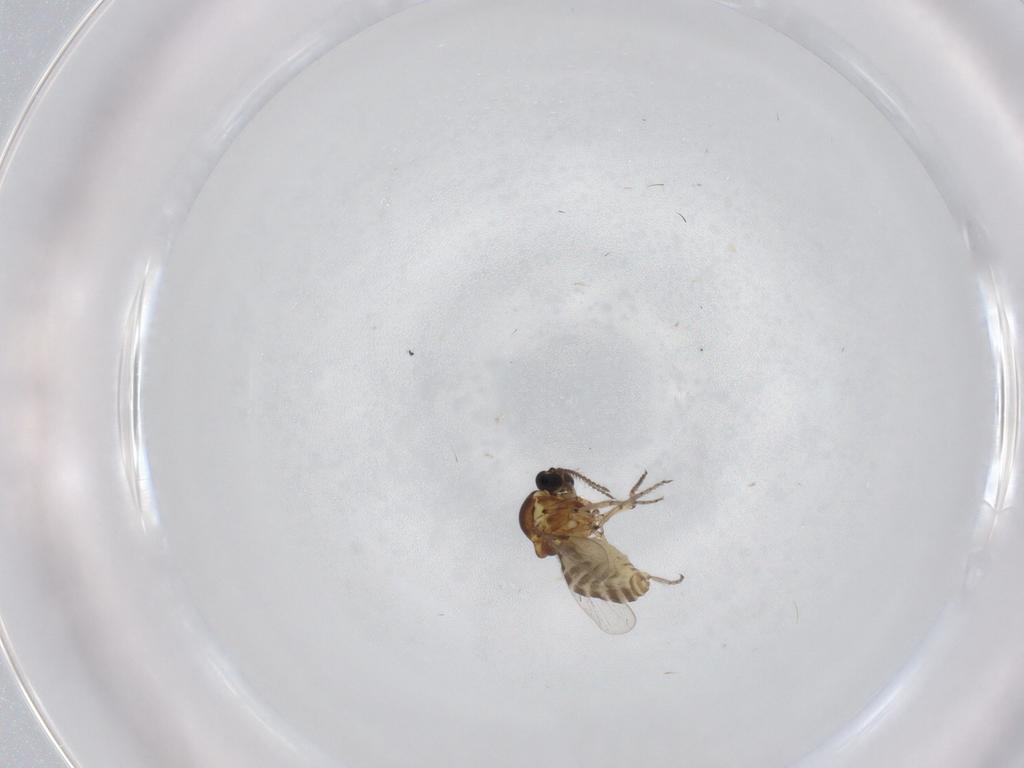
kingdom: Animalia
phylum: Arthropoda
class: Insecta
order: Diptera
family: Ceratopogonidae
